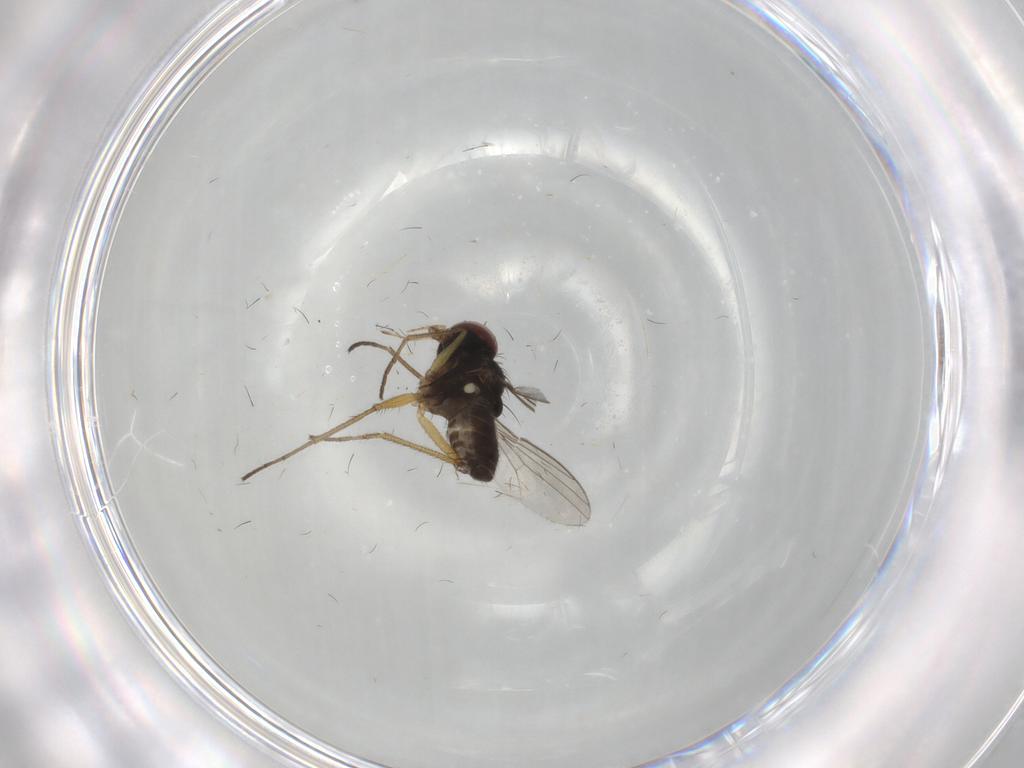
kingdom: Animalia
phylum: Arthropoda
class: Insecta
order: Diptera
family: Dolichopodidae
